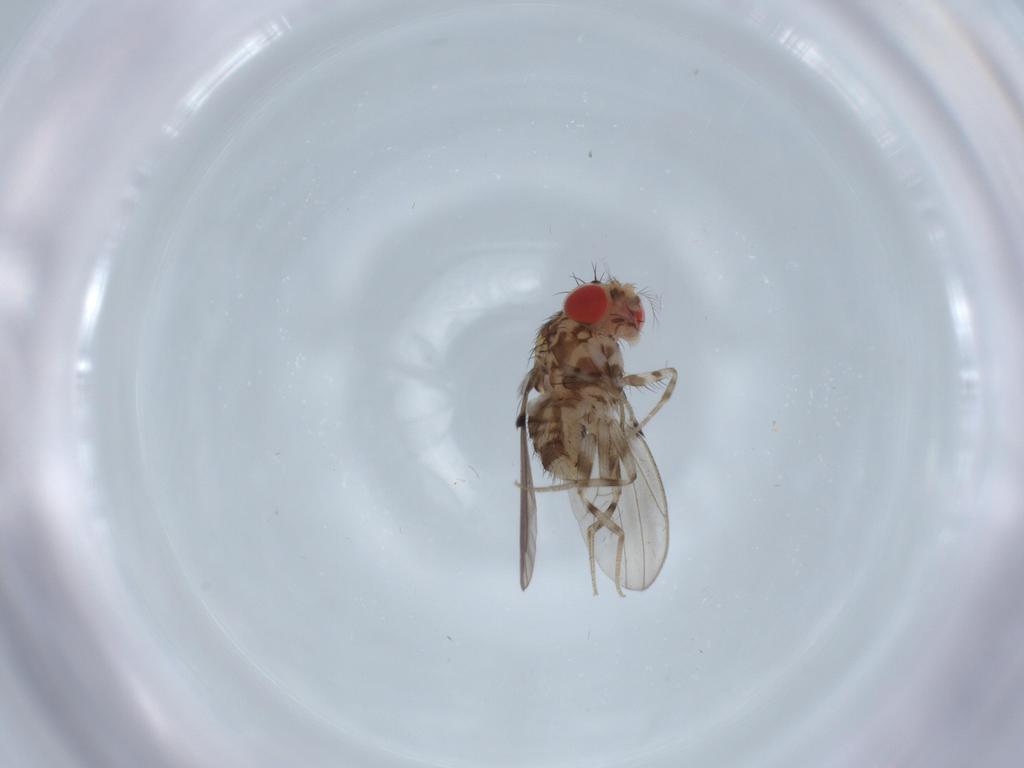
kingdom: Animalia
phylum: Arthropoda
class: Insecta
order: Diptera
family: Drosophilidae
